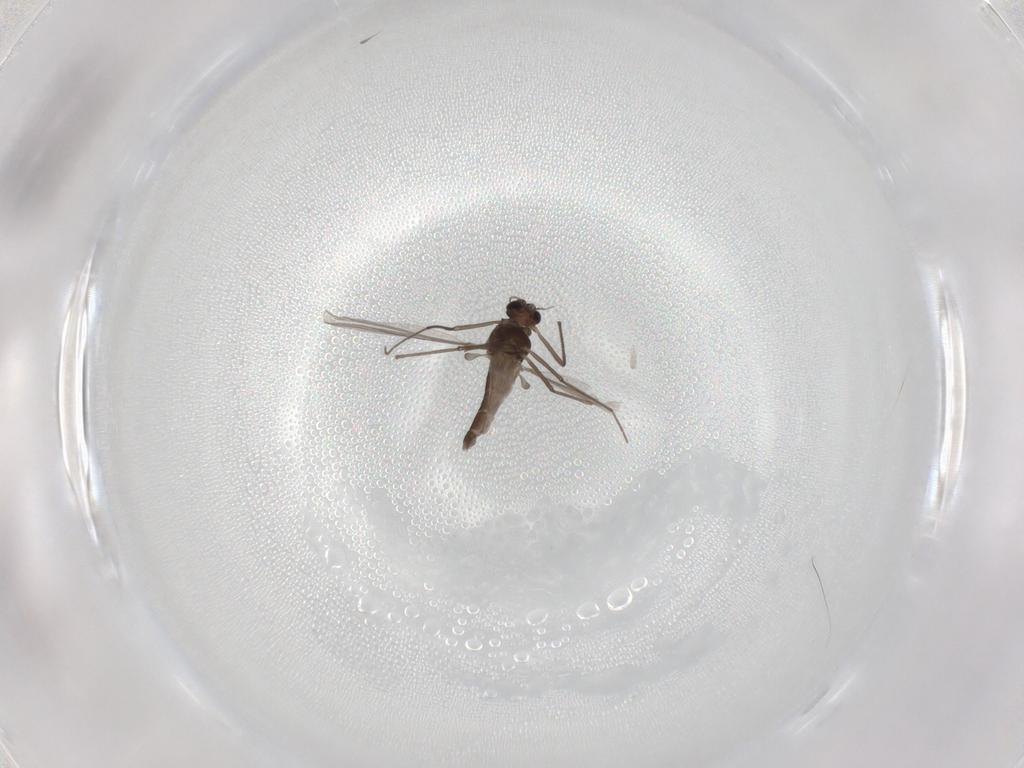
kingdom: Animalia
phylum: Arthropoda
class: Insecta
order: Diptera
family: Chironomidae
